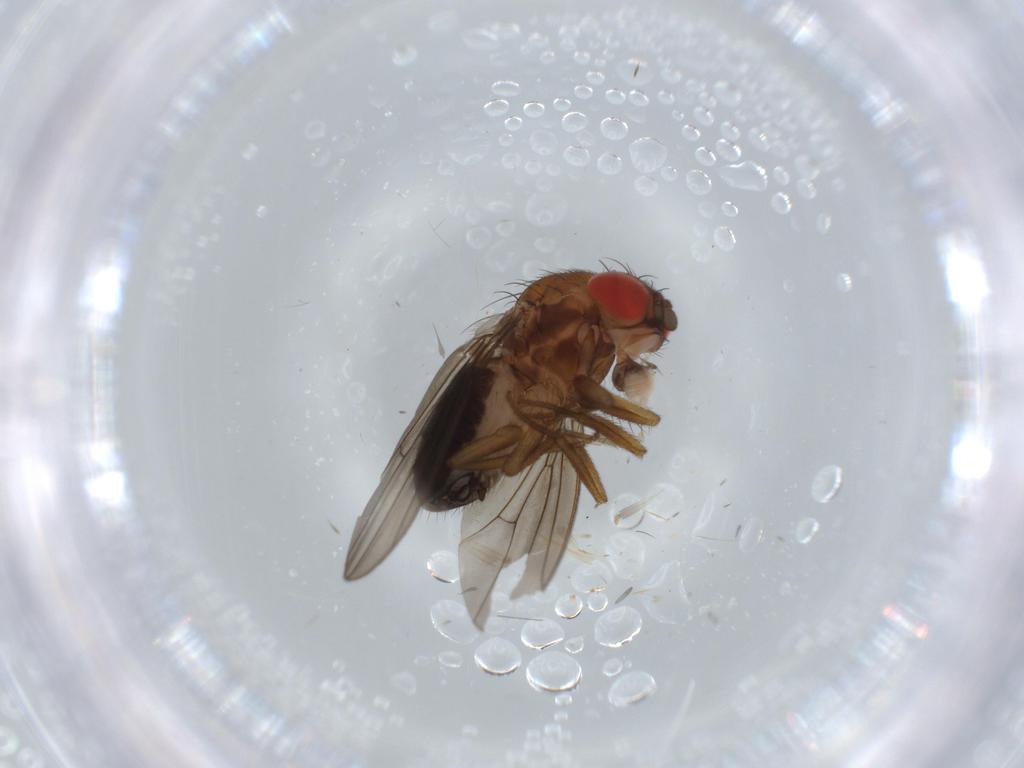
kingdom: Animalia
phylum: Arthropoda
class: Insecta
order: Diptera
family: Drosophilidae
